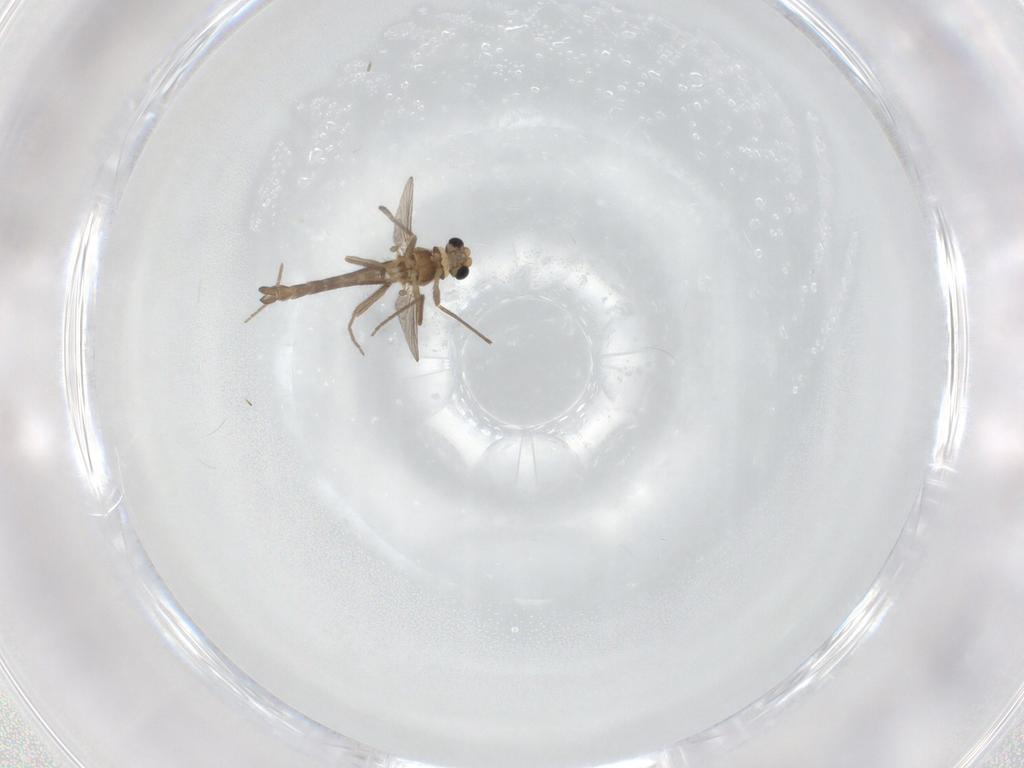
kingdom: Animalia
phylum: Arthropoda
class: Insecta
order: Diptera
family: Chironomidae
